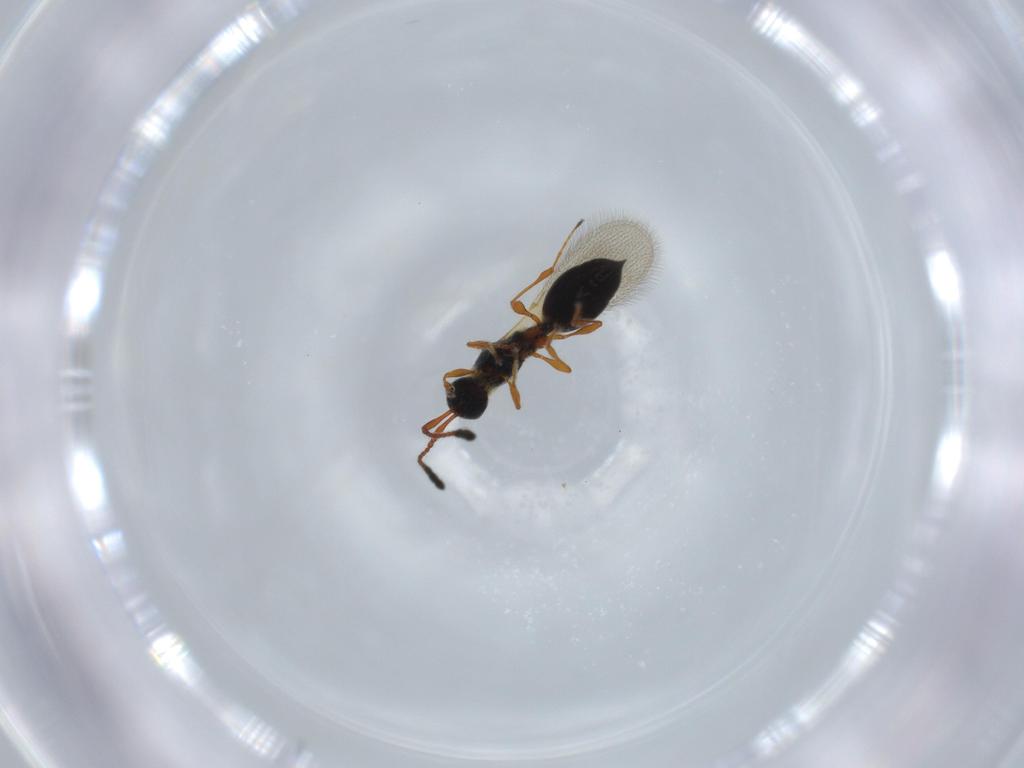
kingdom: Animalia
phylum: Arthropoda
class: Insecta
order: Hymenoptera
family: Diapriidae
